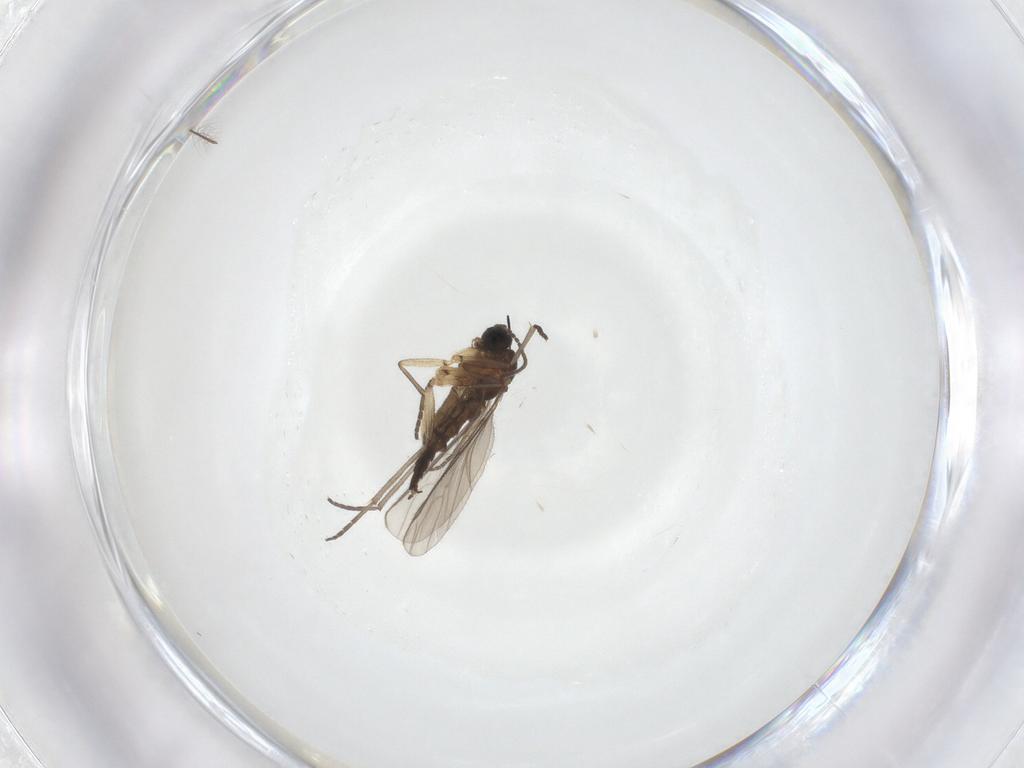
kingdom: Animalia
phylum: Arthropoda
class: Insecta
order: Diptera
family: Sciaridae
